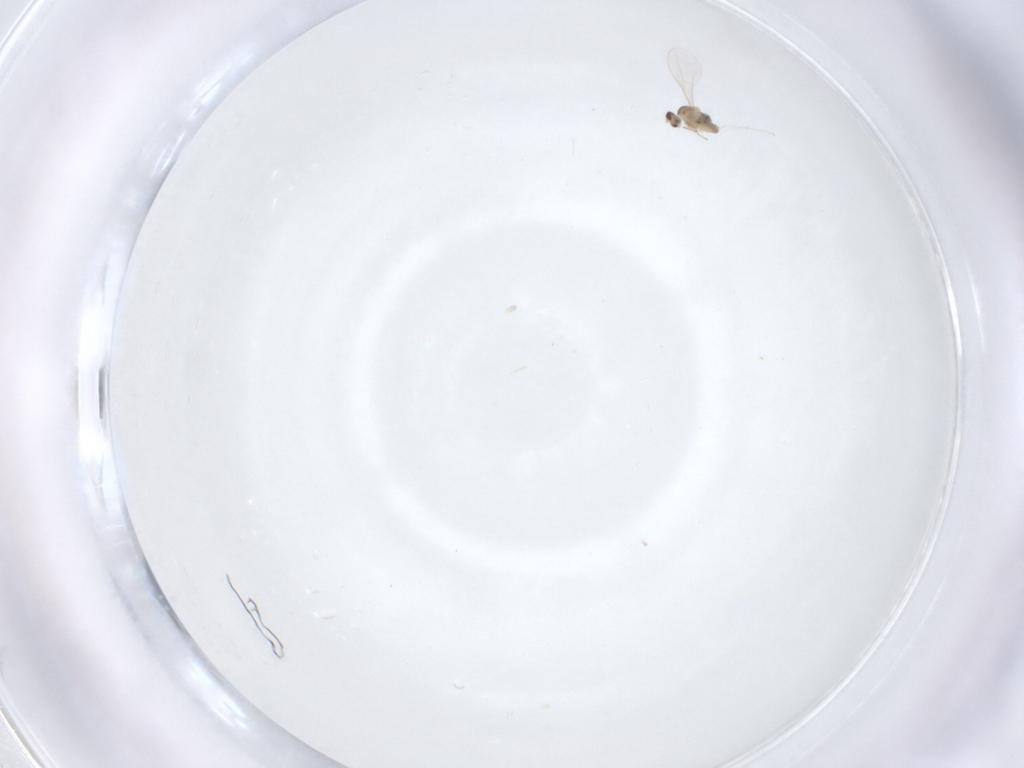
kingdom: Animalia
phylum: Arthropoda
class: Insecta
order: Diptera
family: Cecidomyiidae
